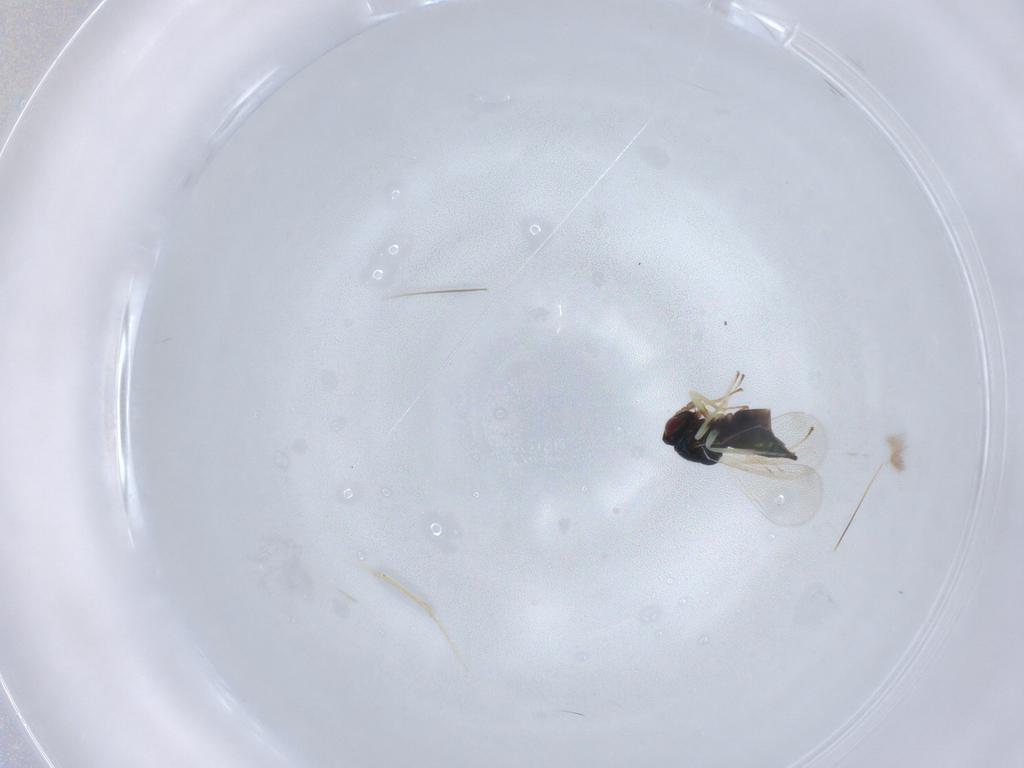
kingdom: Animalia
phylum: Arthropoda
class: Insecta
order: Hymenoptera
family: Eulophidae
